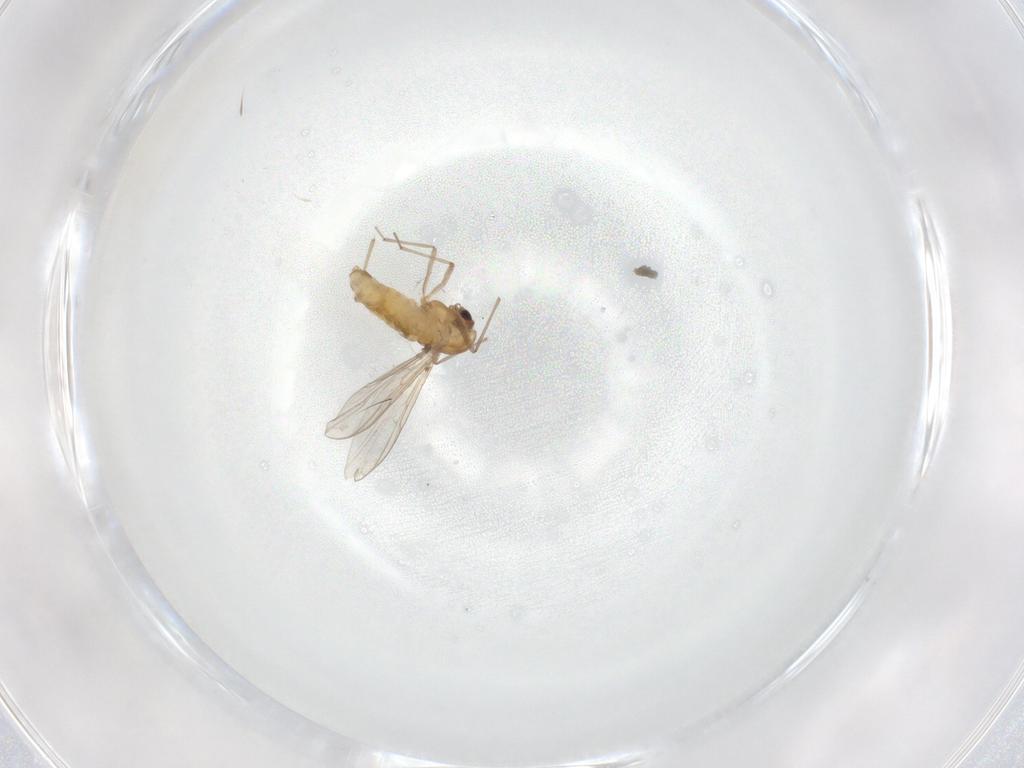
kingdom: Animalia
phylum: Arthropoda
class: Insecta
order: Diptera
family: Chironomidae
